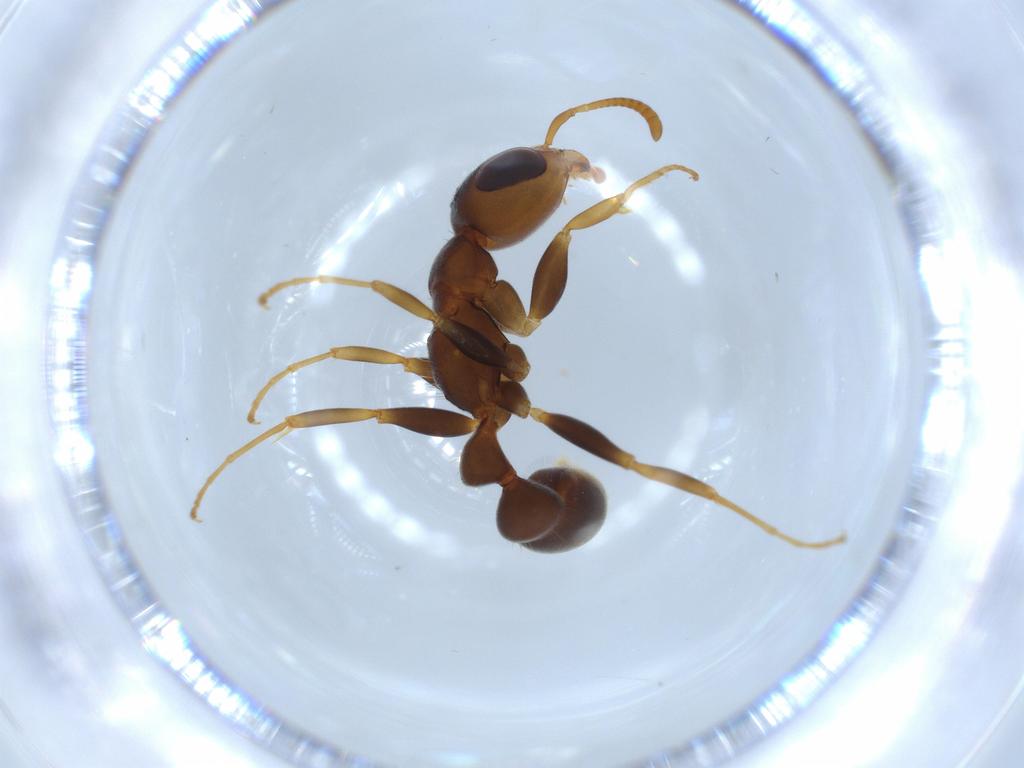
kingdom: Animalia
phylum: Arthropoda
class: Insecta
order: Hymenoptera
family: Formicidae
